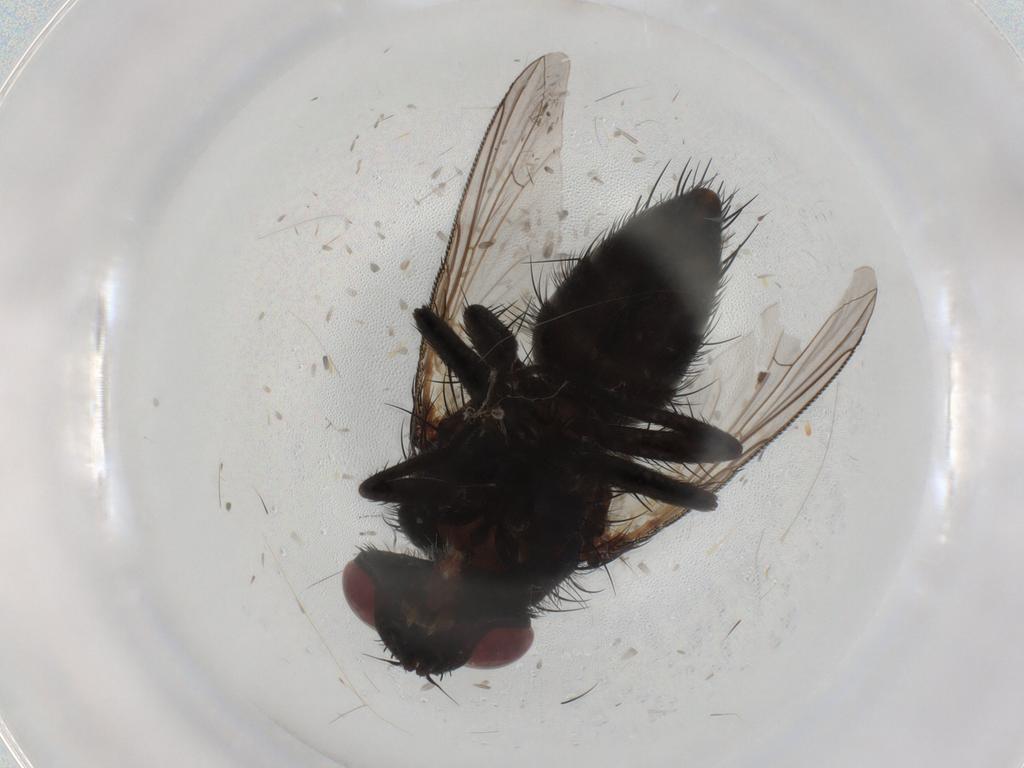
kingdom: Animalia
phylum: Arthropoda
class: Insecta
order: Diptera
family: Tachinidae
